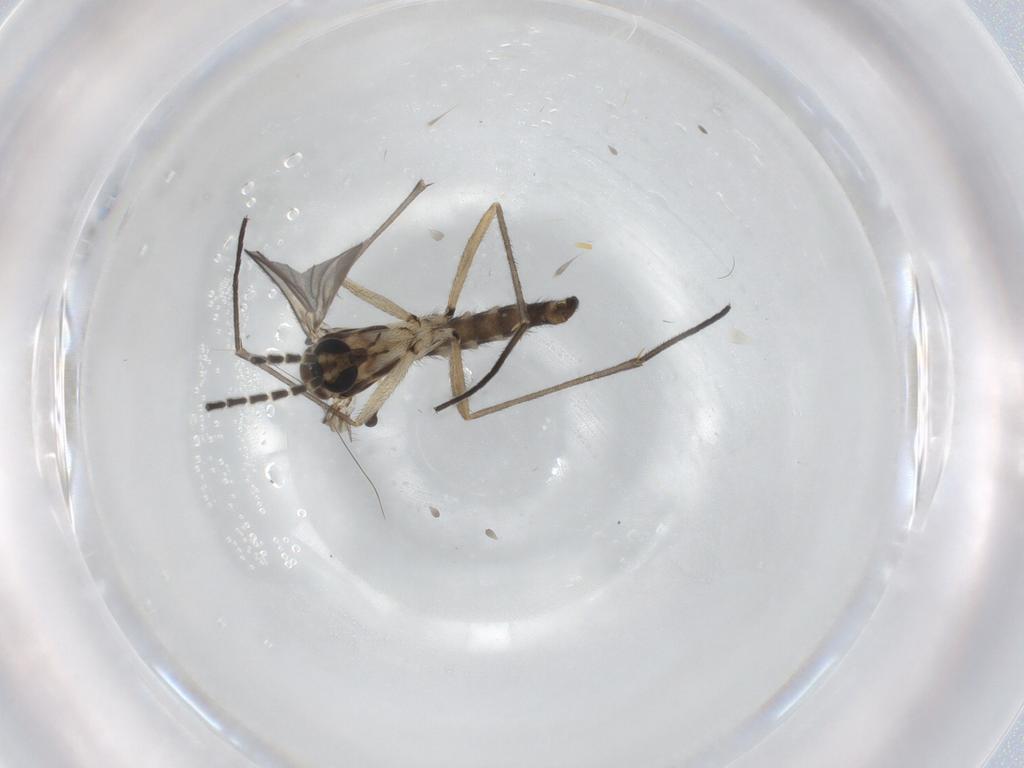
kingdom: Animalia
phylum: Arthropoda
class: Insecta
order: Diptera
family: Sciaridae
